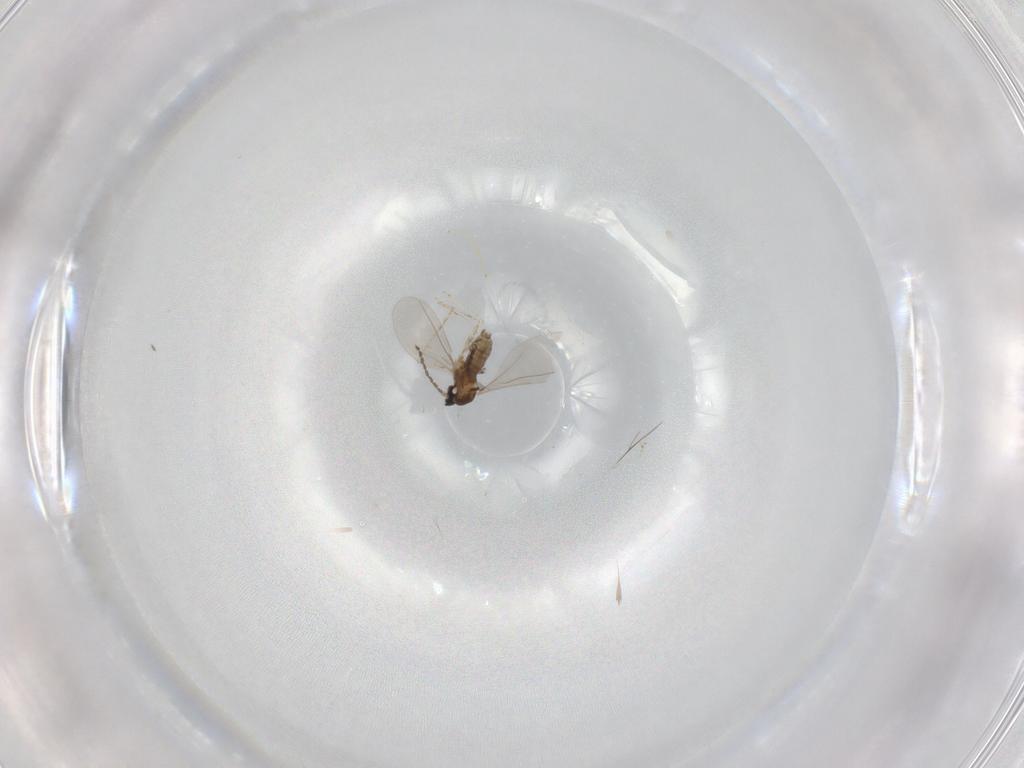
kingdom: Animalia
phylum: Arthropoda
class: Insecta
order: Diptera
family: Cecidomyiidae
